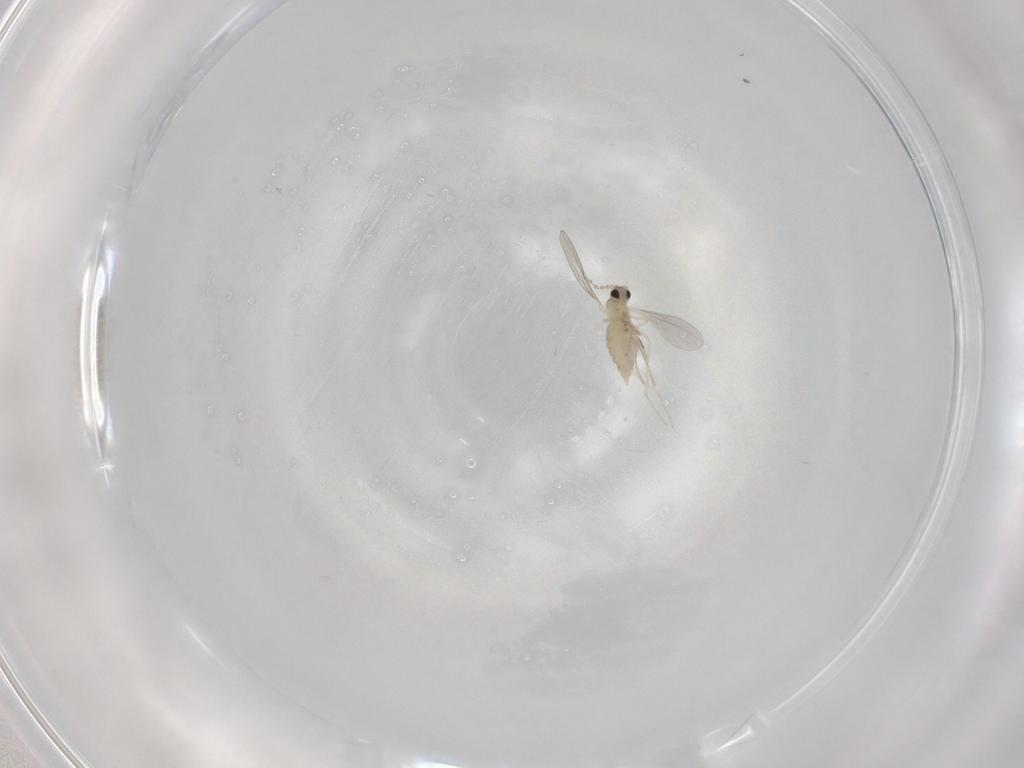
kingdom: Animalia
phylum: Arthropoda
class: Insecta
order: Diptera
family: Cecidomyiidae
